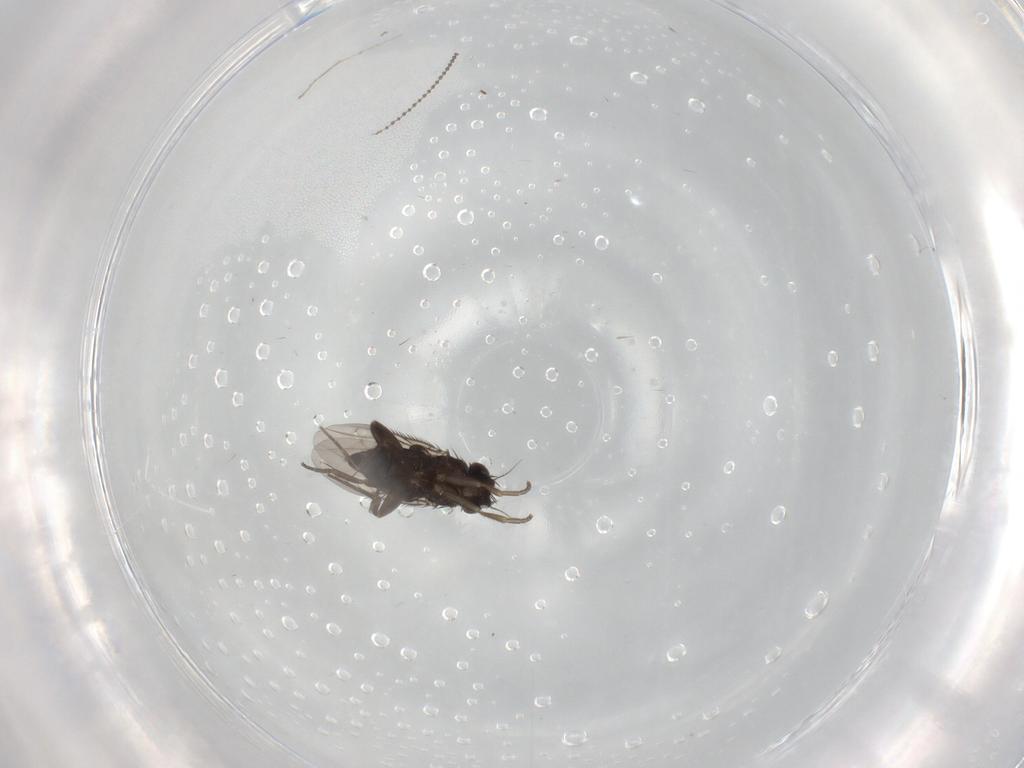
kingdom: Animalia
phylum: Arthropoda
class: Insecta
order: Diptera
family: Cecidomyiidae
